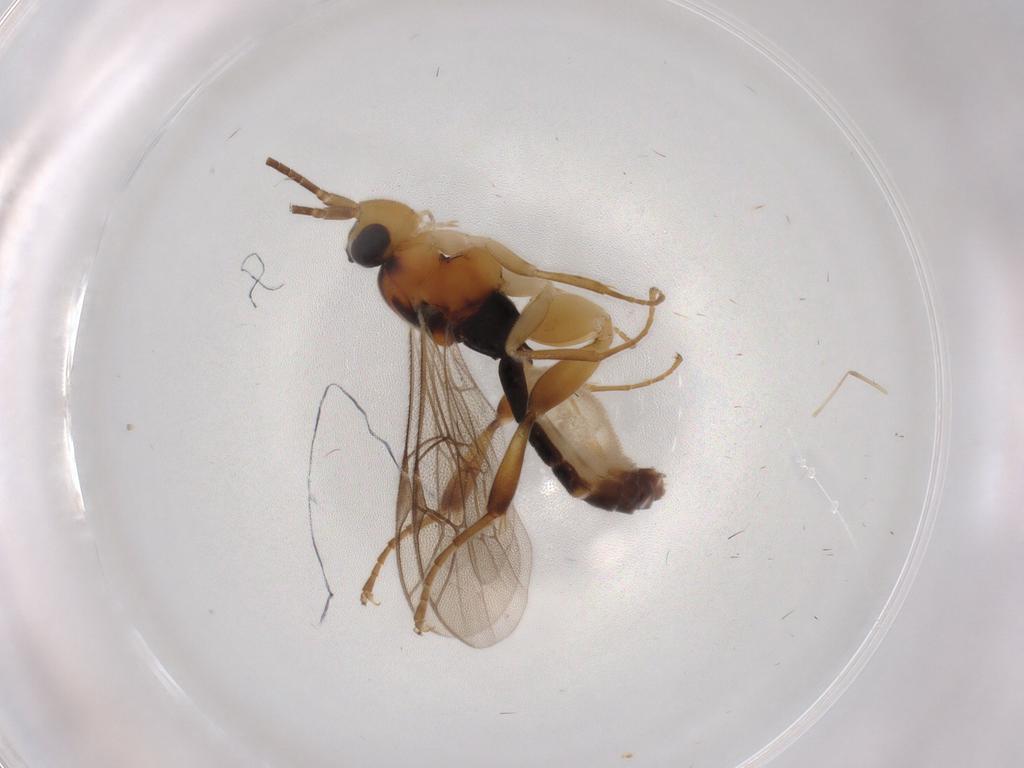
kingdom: Animalia
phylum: Arthropoda
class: Insecta
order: Hymenoptera
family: Ichneumonidae
